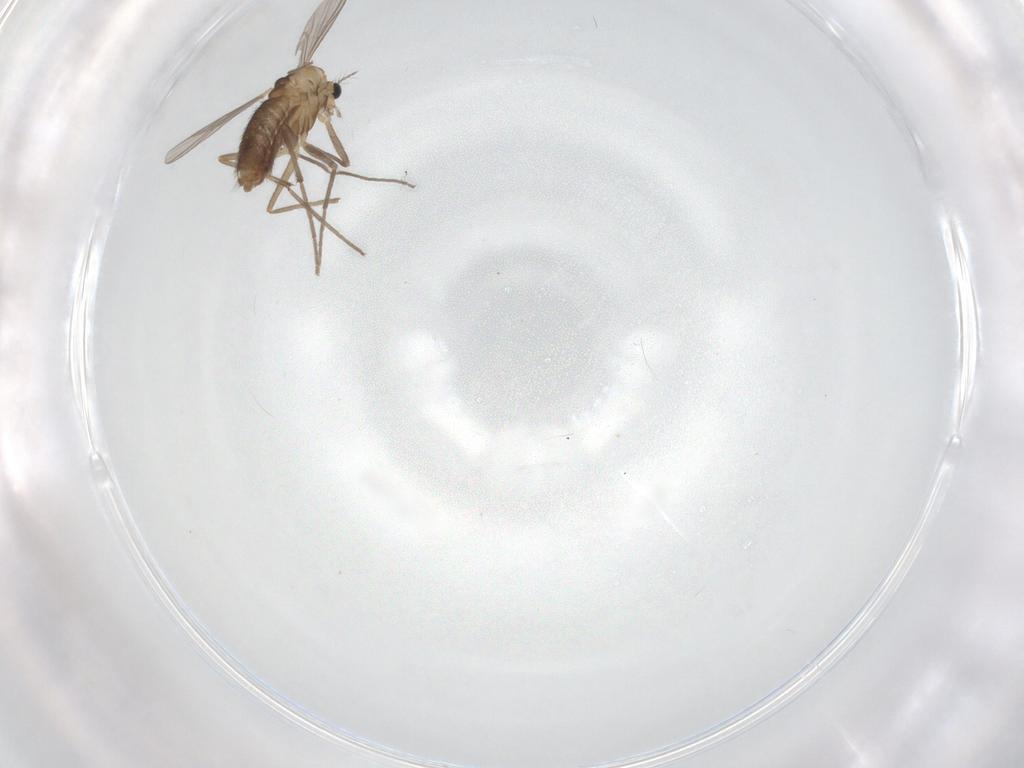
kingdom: Animalia
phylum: Arthropoda
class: Insecta
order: Diptera
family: Chironomidae
